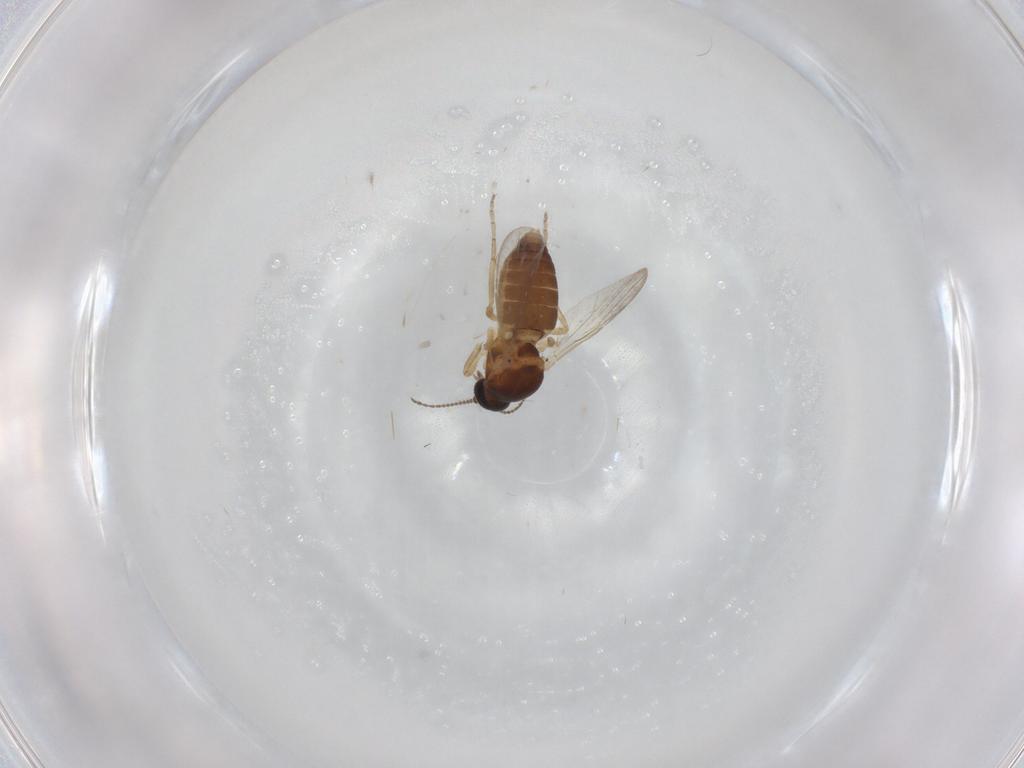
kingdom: Animalia
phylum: Arthropoda
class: Insecta
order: Diptera
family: Ceratopogonidae
